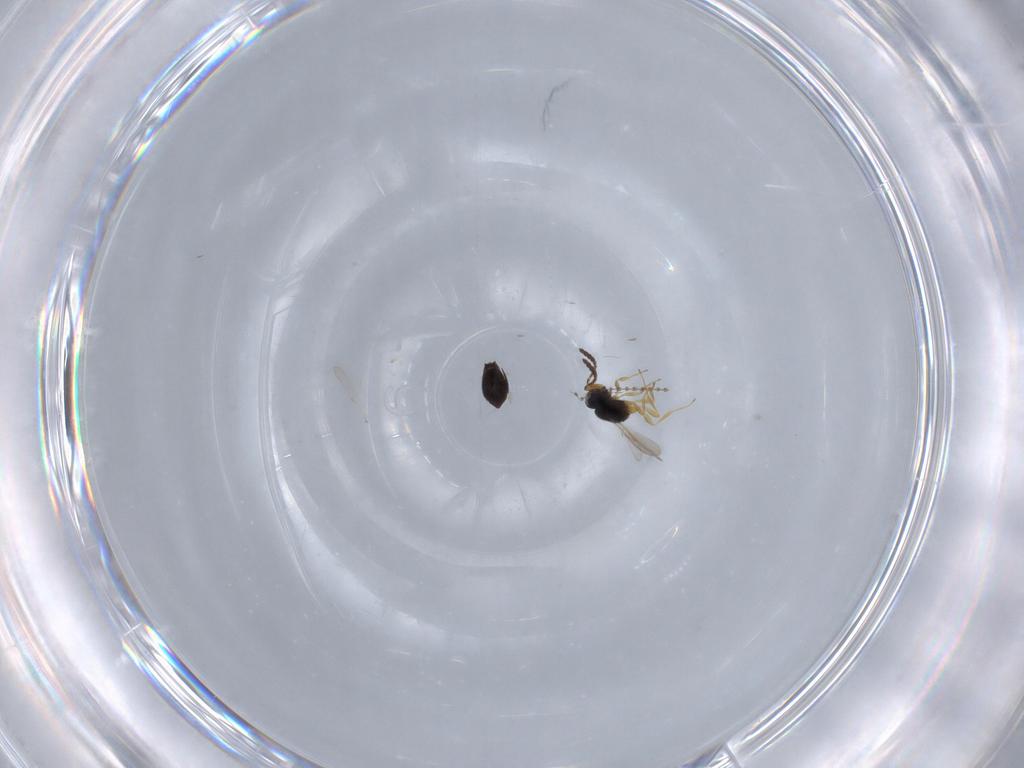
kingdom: Animalia
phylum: Arthropoda
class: Insecta
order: Hymenoptera
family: Scelionidae
